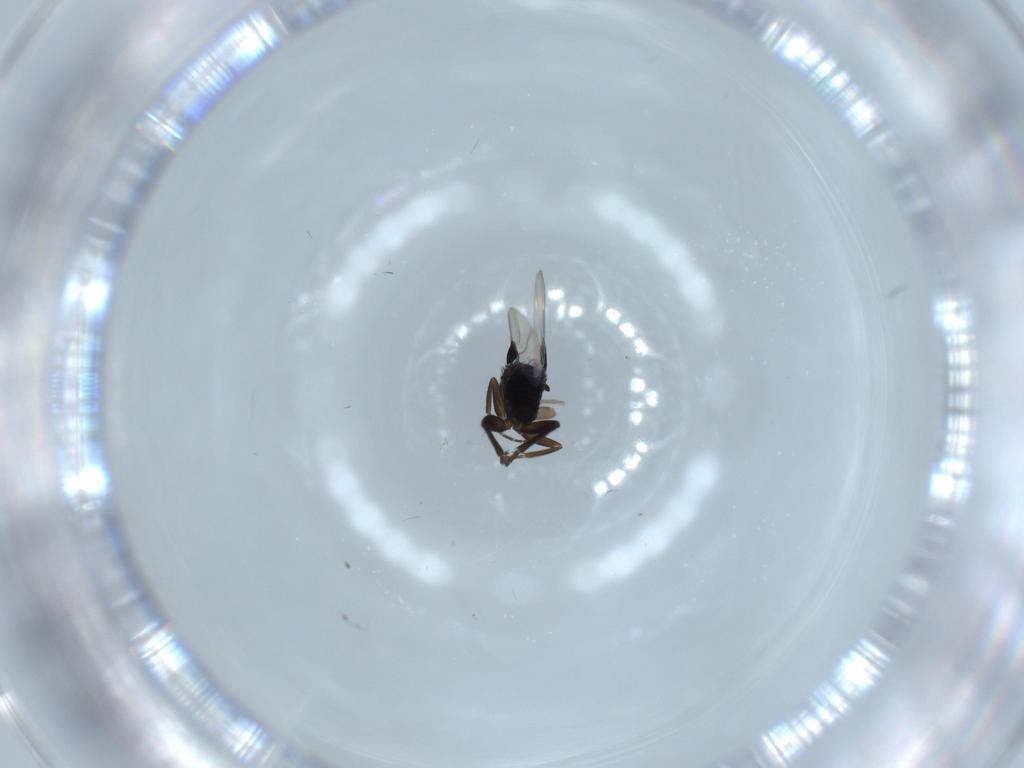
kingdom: Animalia
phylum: Arthropoda
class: Insecta
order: Diptera
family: Phoridae
